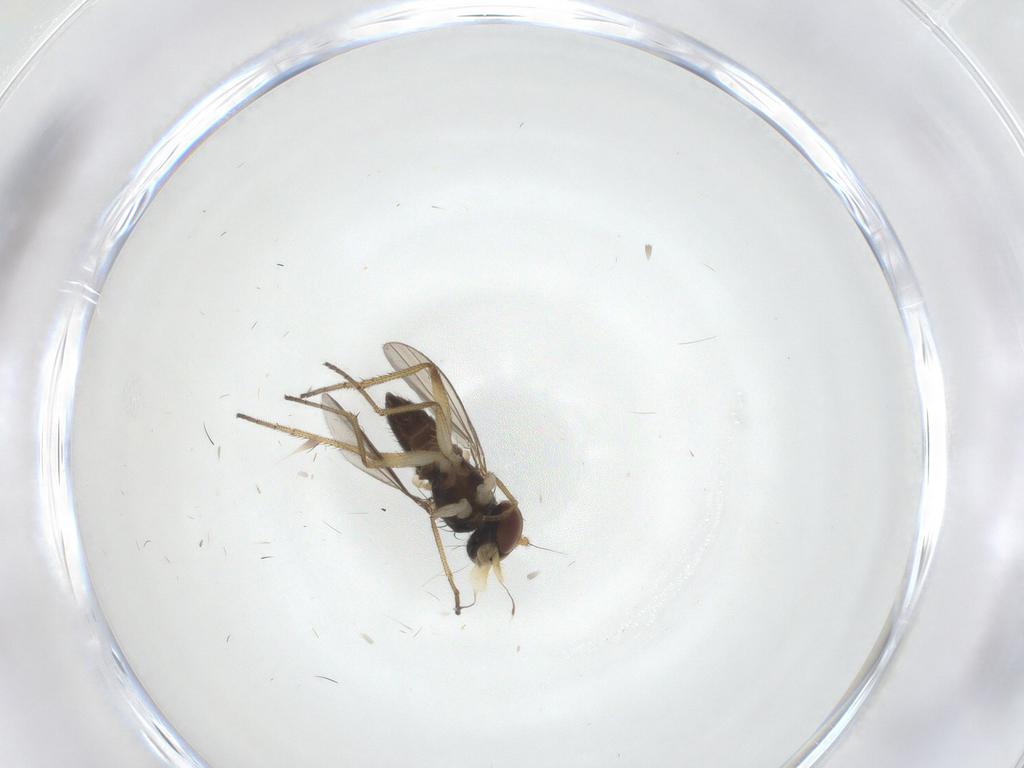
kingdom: Animalia
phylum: Arthropoda
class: Insecta
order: Diptera
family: Dolichopodidae
